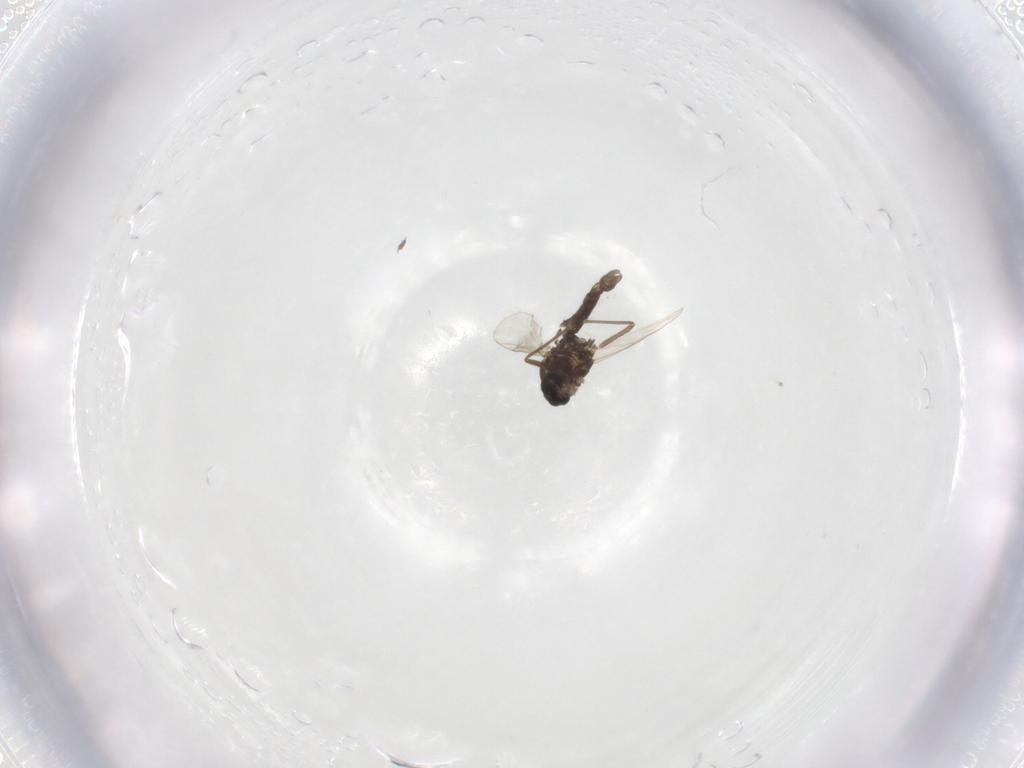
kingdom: Animalia
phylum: Arthropoda
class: Insecta
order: Diptera
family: Chironomidae
